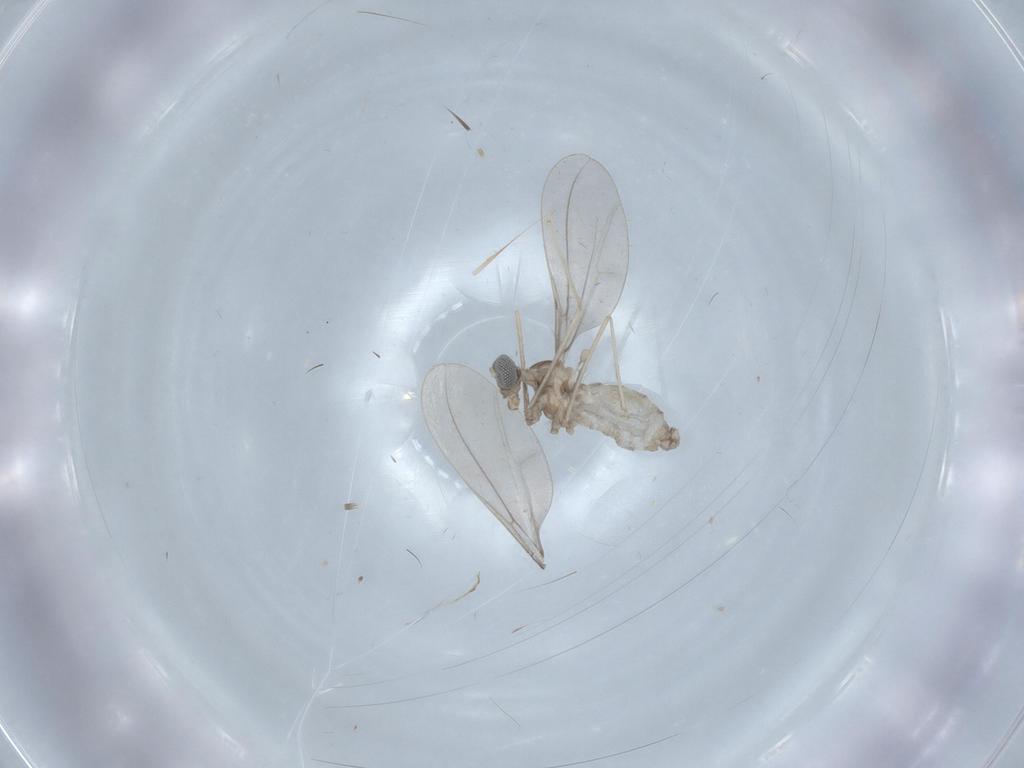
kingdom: Animalia
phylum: Arthropoda
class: Insecta
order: Diptera
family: Cecidomyiidae
